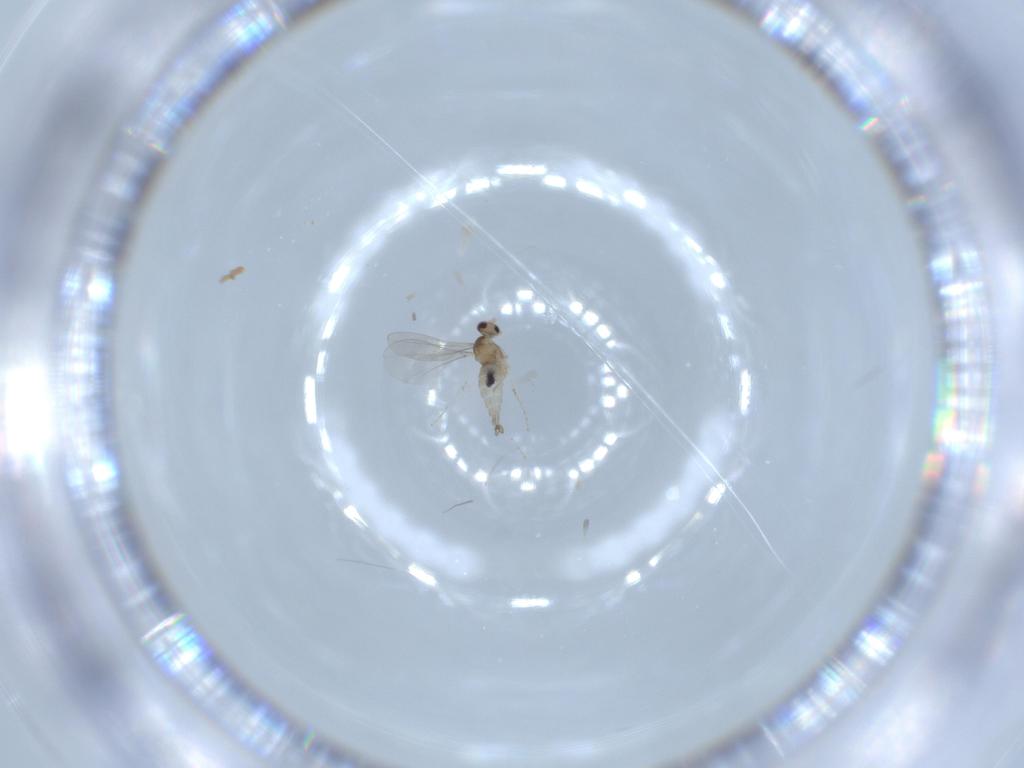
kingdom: Animalia
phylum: Arthropoda
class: Insecta
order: Diptera
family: Cecidomyiidae
